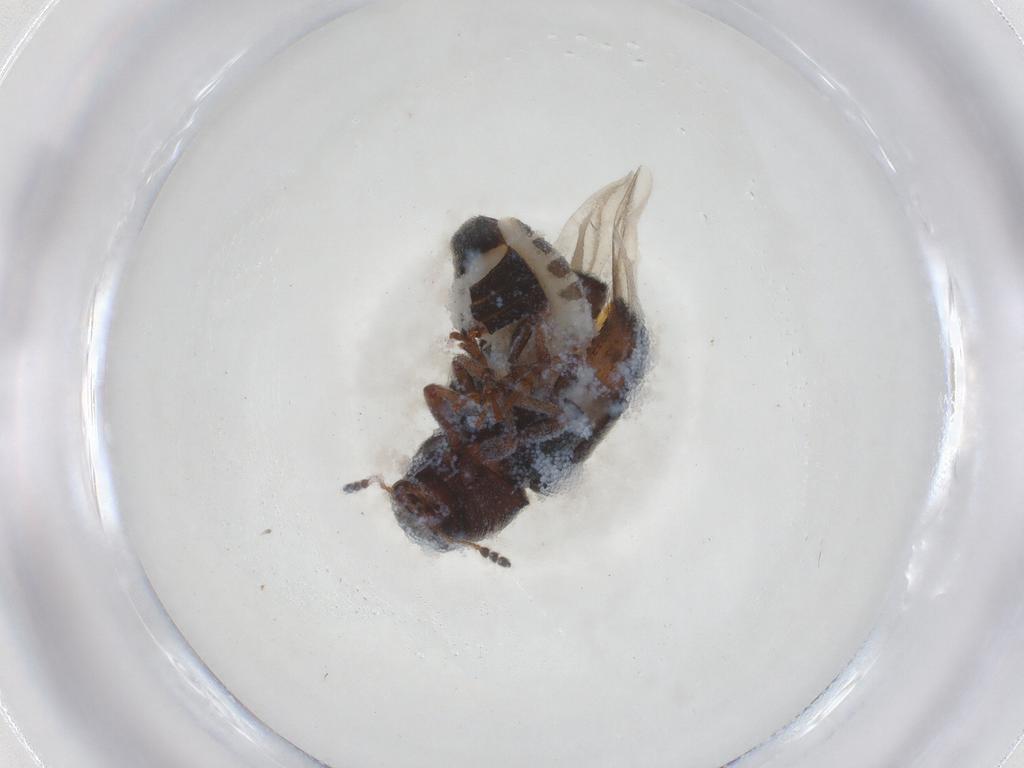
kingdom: Animalia
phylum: Arthropoda
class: Insecta
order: Coleoptera
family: Anthribidae
